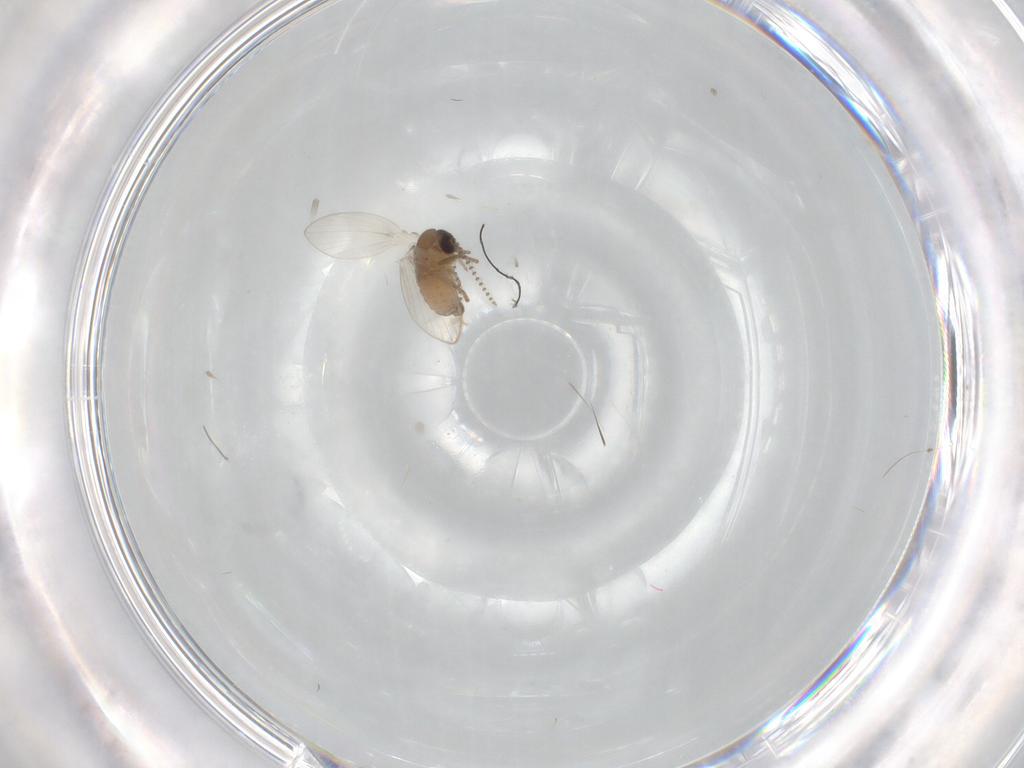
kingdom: Animalia
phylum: Arthropoda
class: Insecta
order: Diptera
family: Psychodidae
